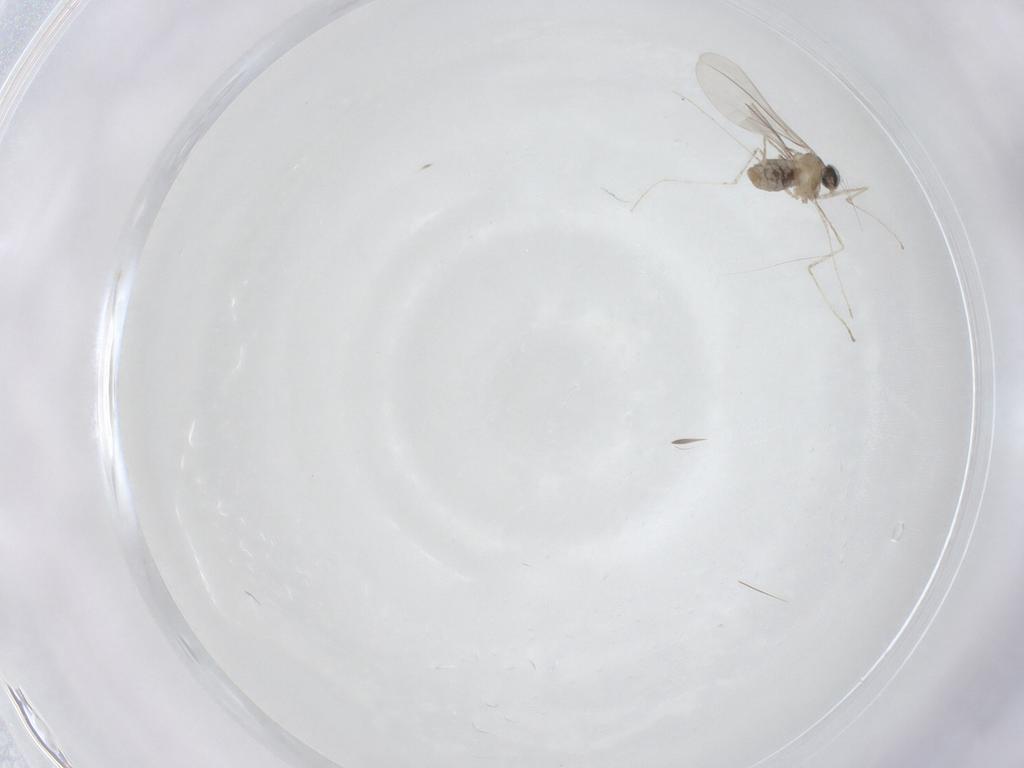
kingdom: Animalia
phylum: Arthropoda
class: Insecta
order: Diptera
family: Cecidomyiidae
